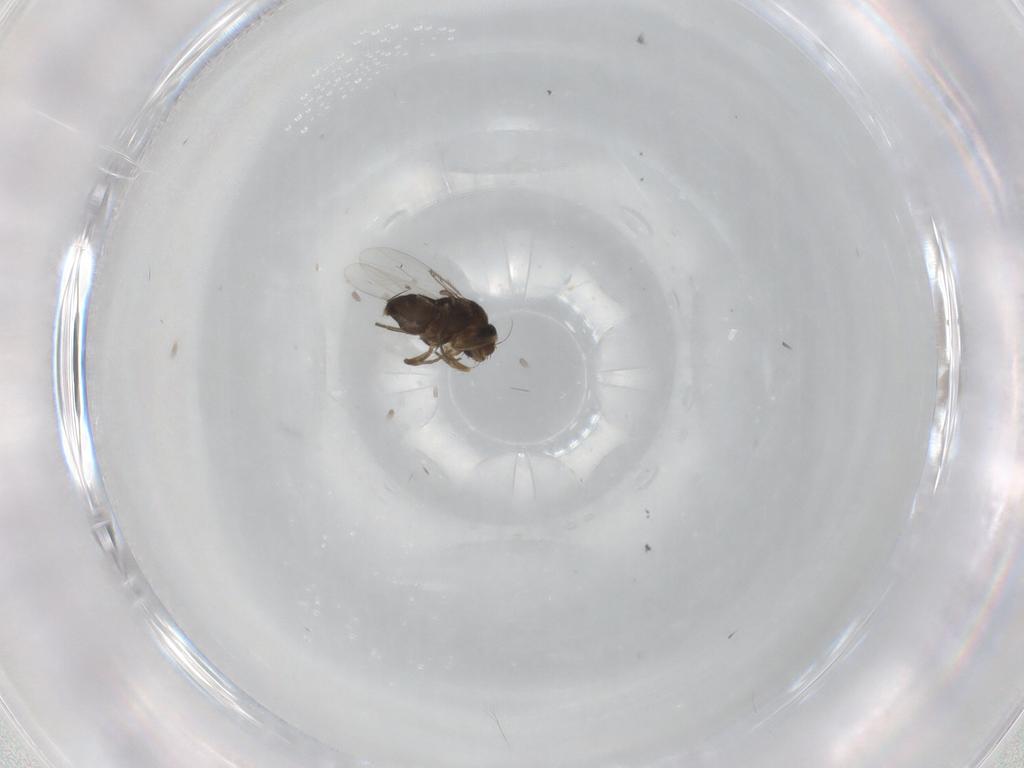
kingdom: Animalia
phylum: Arthropoda
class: Insecta
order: Diptera
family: Phoridae
